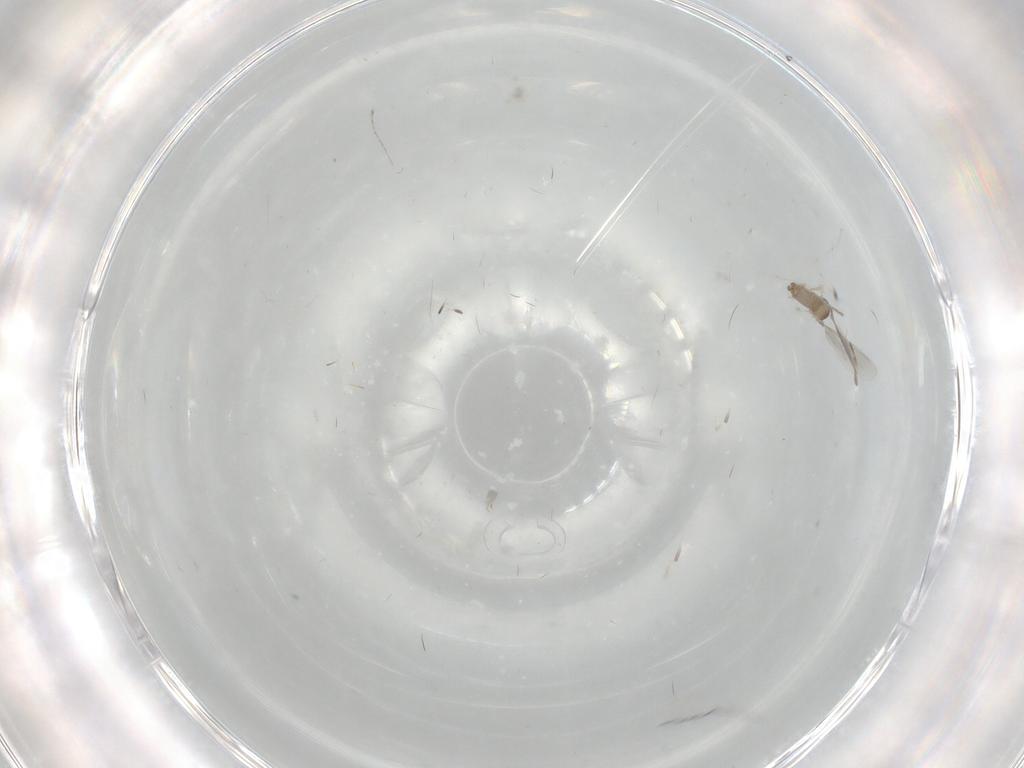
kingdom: Animalia
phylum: Arthropoda
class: Insecta
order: Diptera
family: Cecidomyiidae
